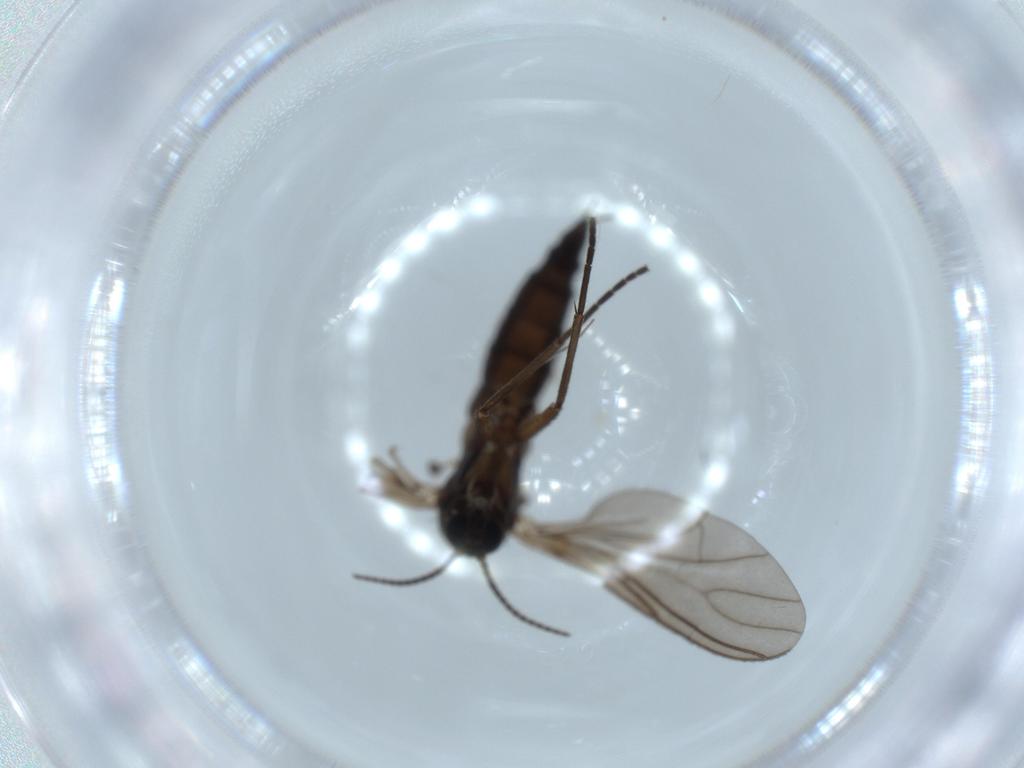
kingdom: Animalia
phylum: Arthropoda
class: Insecta
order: Diptera
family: Sciaridae
